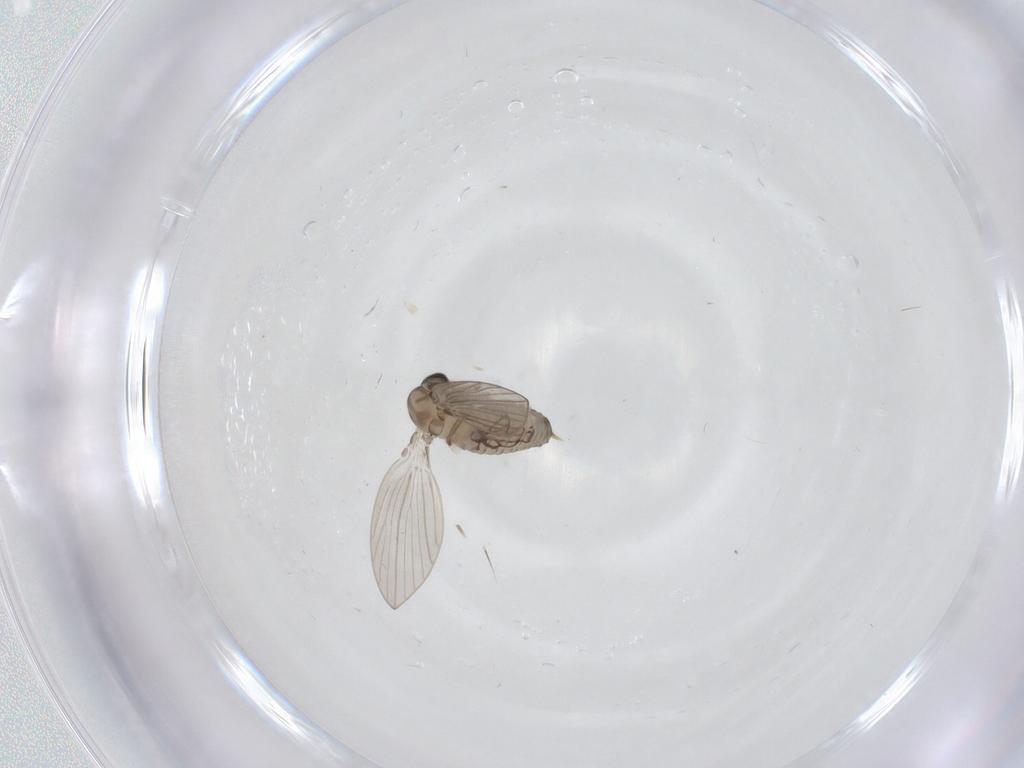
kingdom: Animalia
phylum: Arthropoda
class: Insecta
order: Diptera
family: Psychodidae
